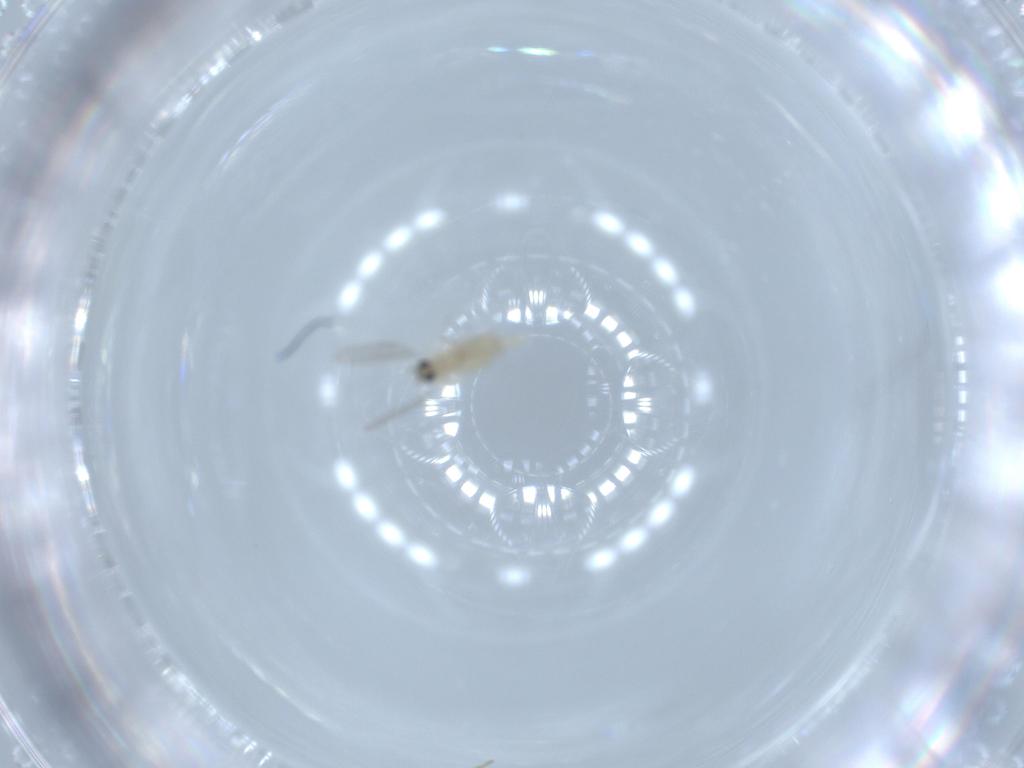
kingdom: Animalia
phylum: Arthropoda
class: Insecta
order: Diptera
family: Cecidomyiidae
